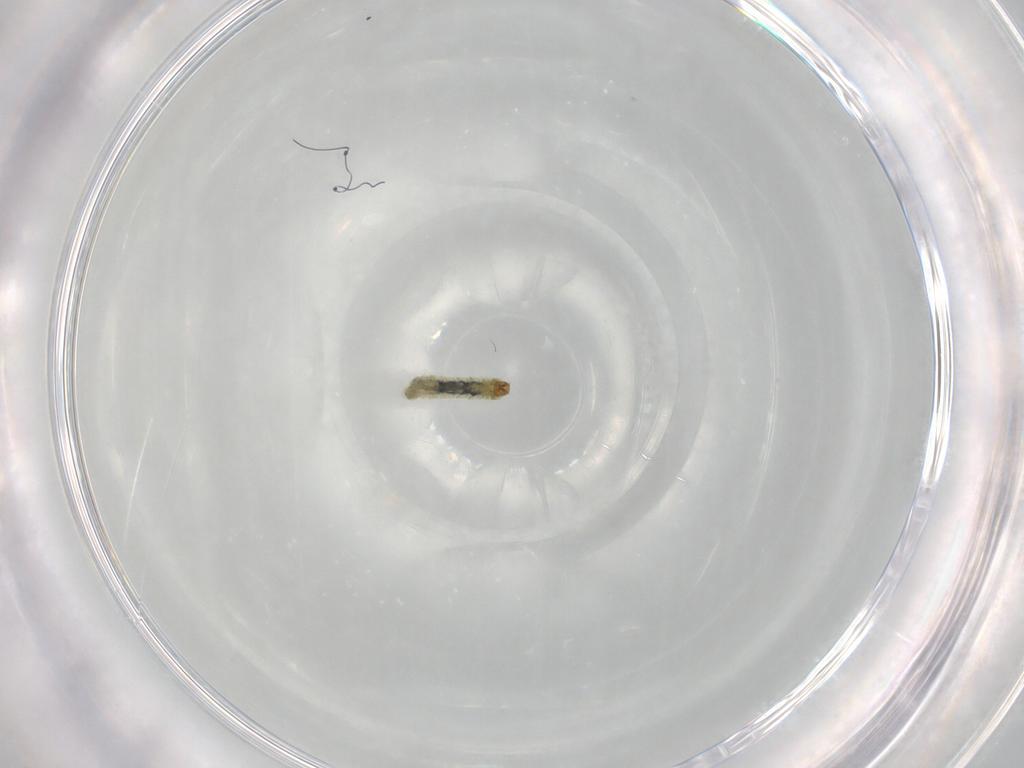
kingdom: Animalia
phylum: Arthropoda
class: Insecta
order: Diptera
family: Chironomidae
